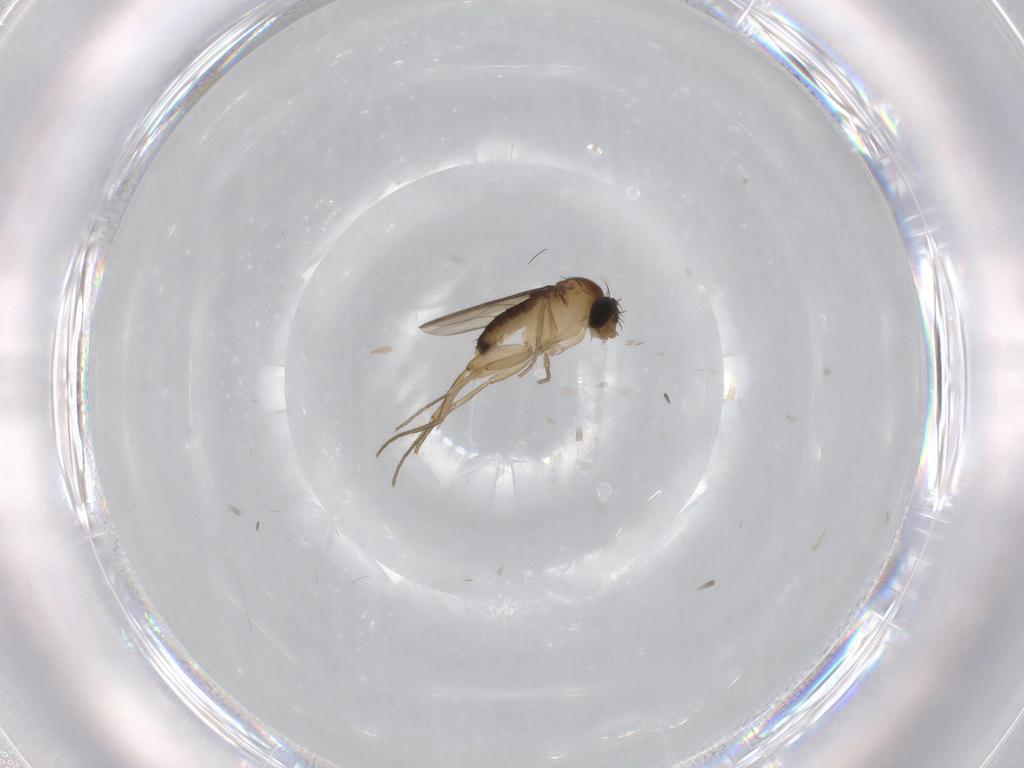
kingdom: Animalia
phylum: Arthropoda
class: Insecta
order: Diptera
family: Phoridae
